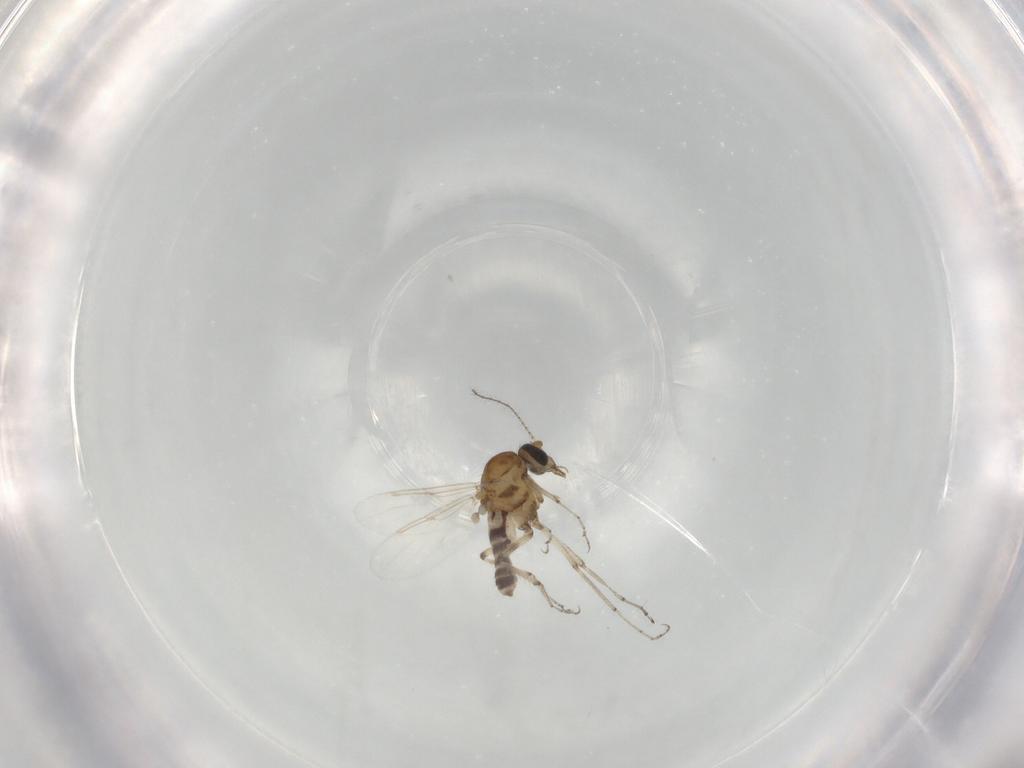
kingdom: Animalia
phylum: Arthropoda
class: Insecta
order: Diptera
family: Ceratopogonidae
